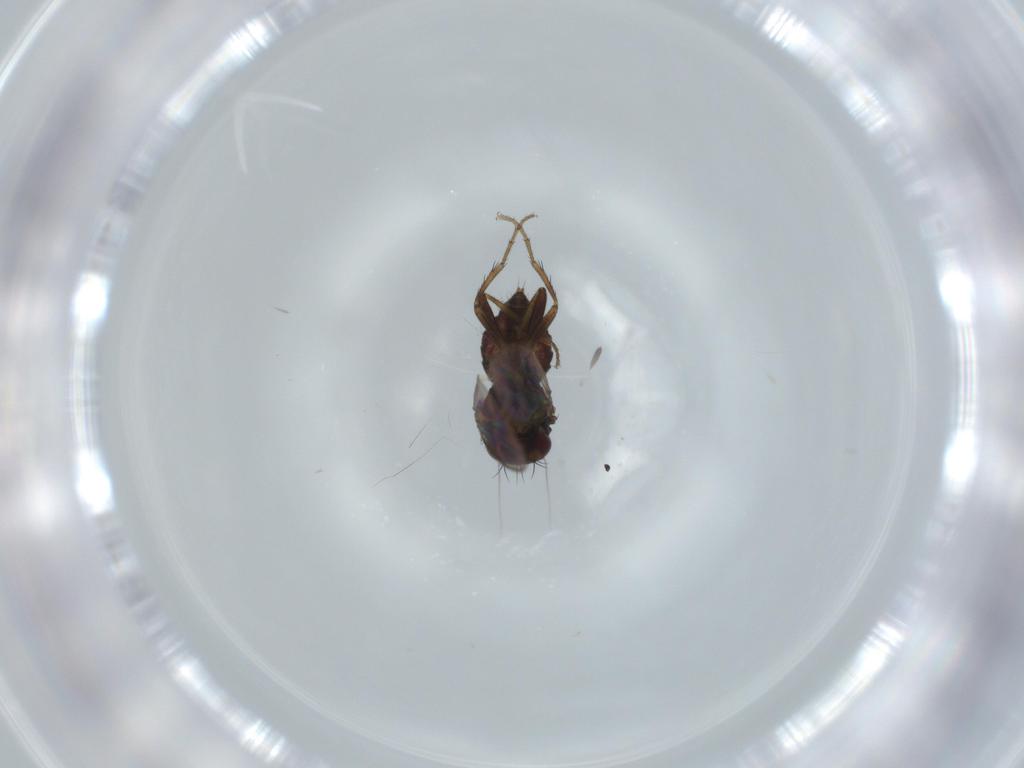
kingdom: Animalia
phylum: Arthropoda
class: Insecta
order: Diptera
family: Sphaeroceridae
